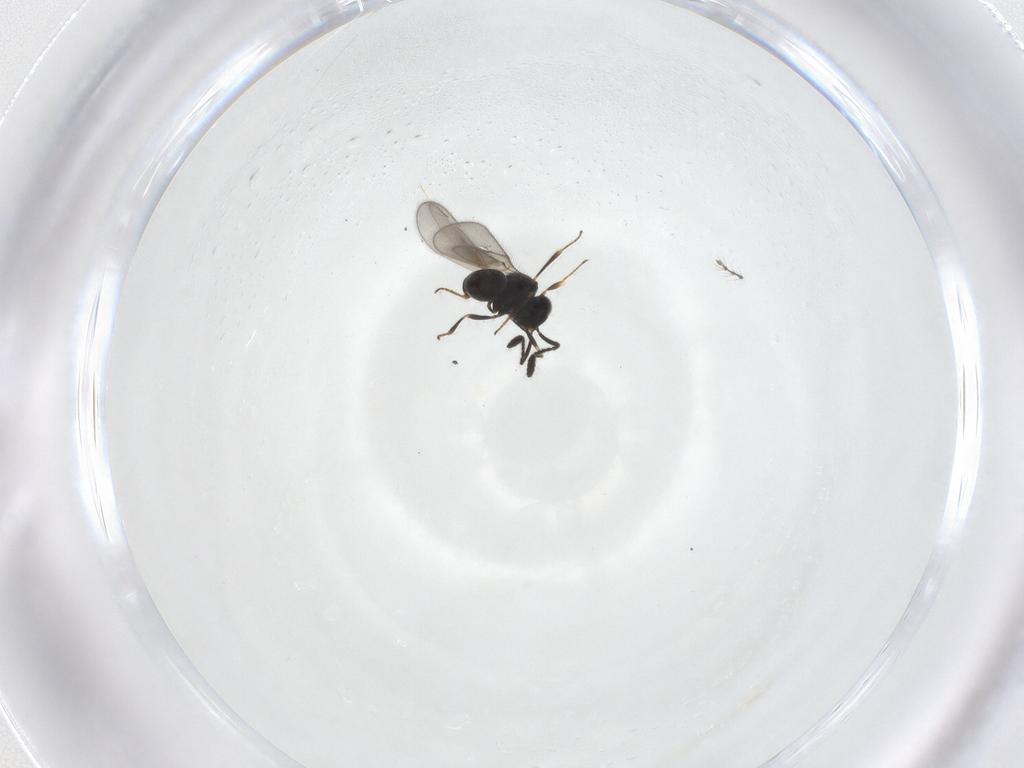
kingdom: Animalia
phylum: Arthropoda
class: Insecta
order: Hymenoptera
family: Scelionidae
